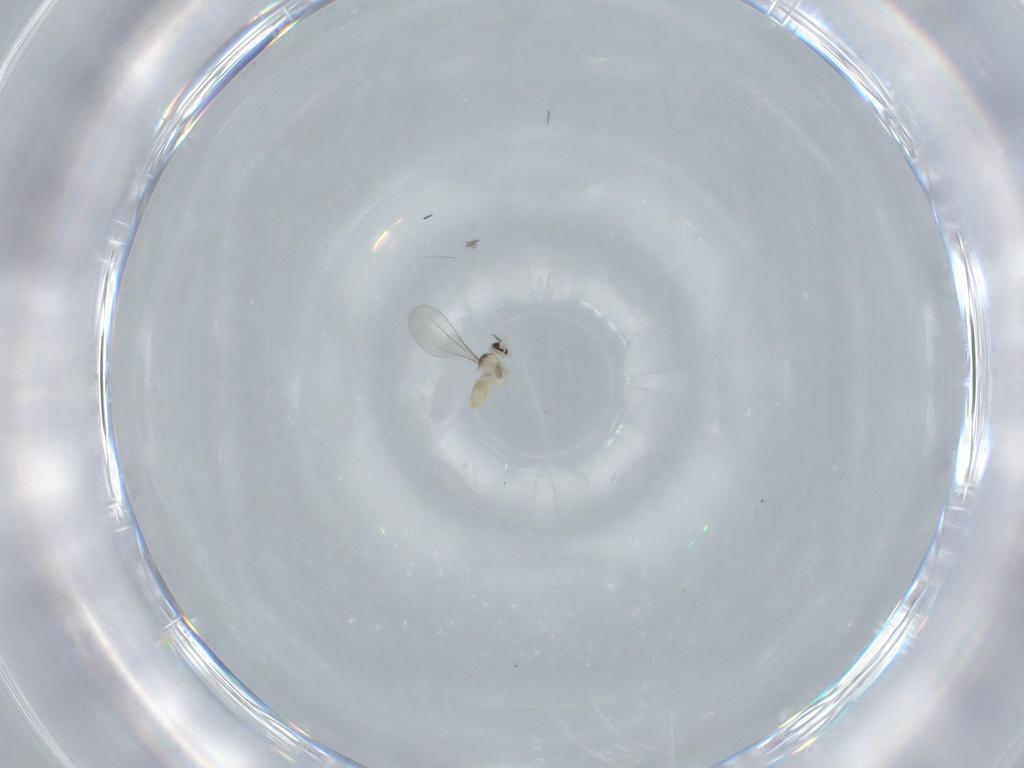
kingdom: Animalia
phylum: Arthropoda
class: Insecta
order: Diptera
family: Cecidomyiidae
